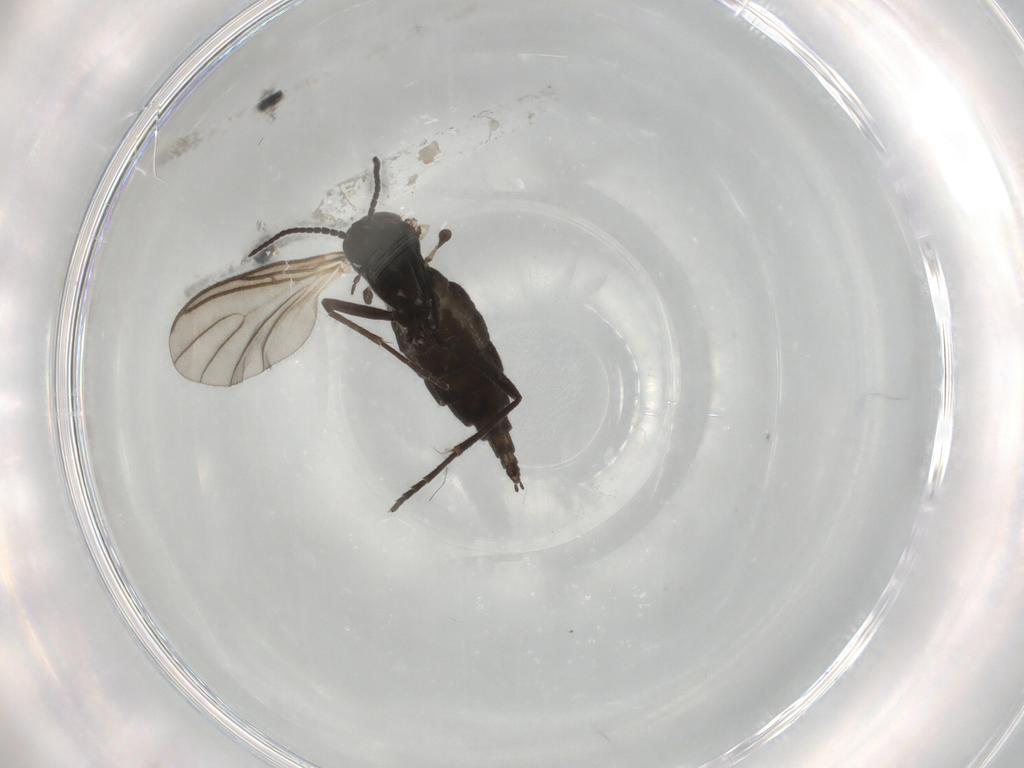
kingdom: Animalia
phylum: Arthropoda
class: Insecta
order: Diptera
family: Sciaridae
